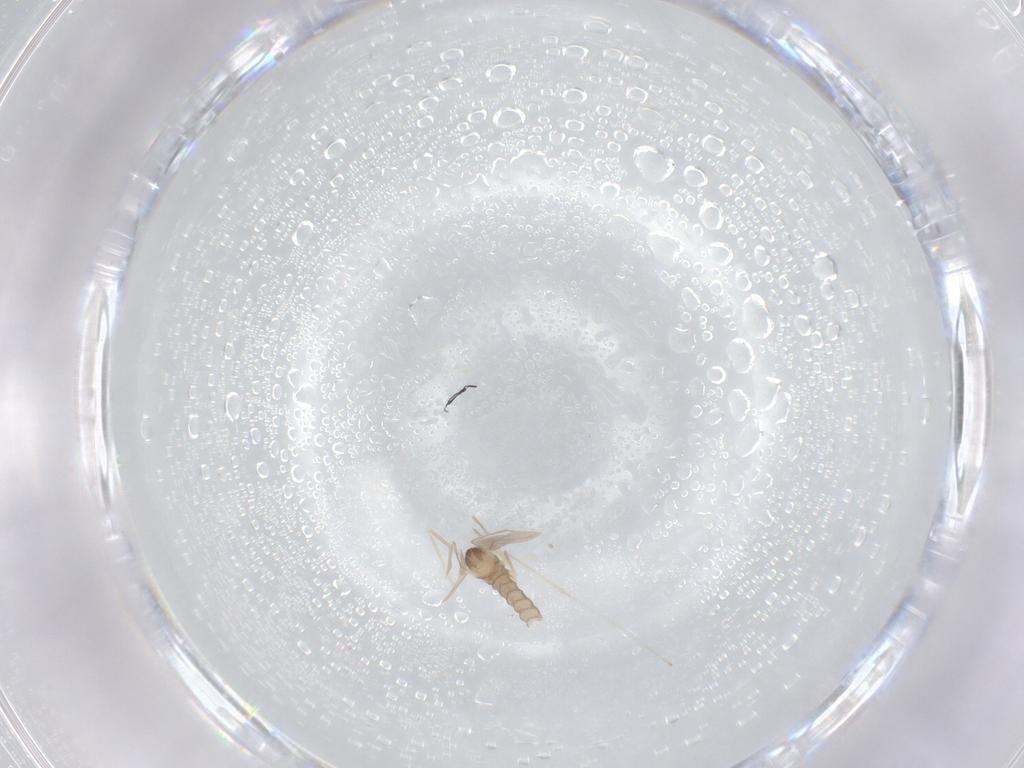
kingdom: Animalia
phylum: Arthropoda
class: Insecta
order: Diptera
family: Cecidomyiidae
